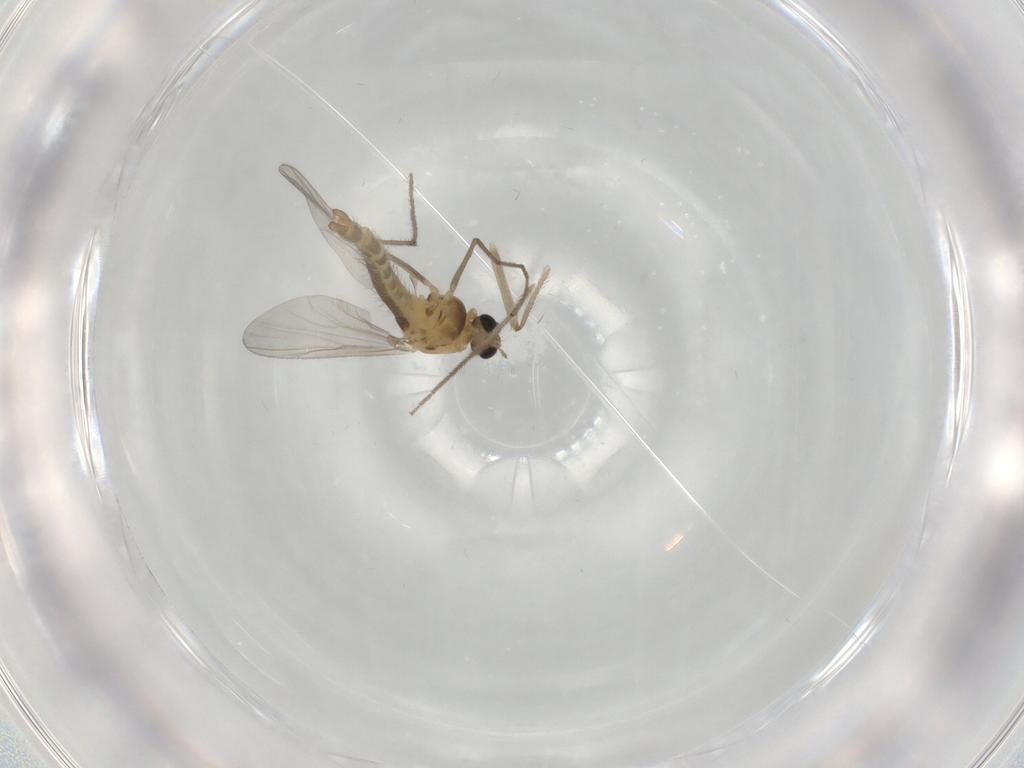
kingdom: Animalia
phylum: Arthropoda
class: Insecta
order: Diptera
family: Chironomidae
